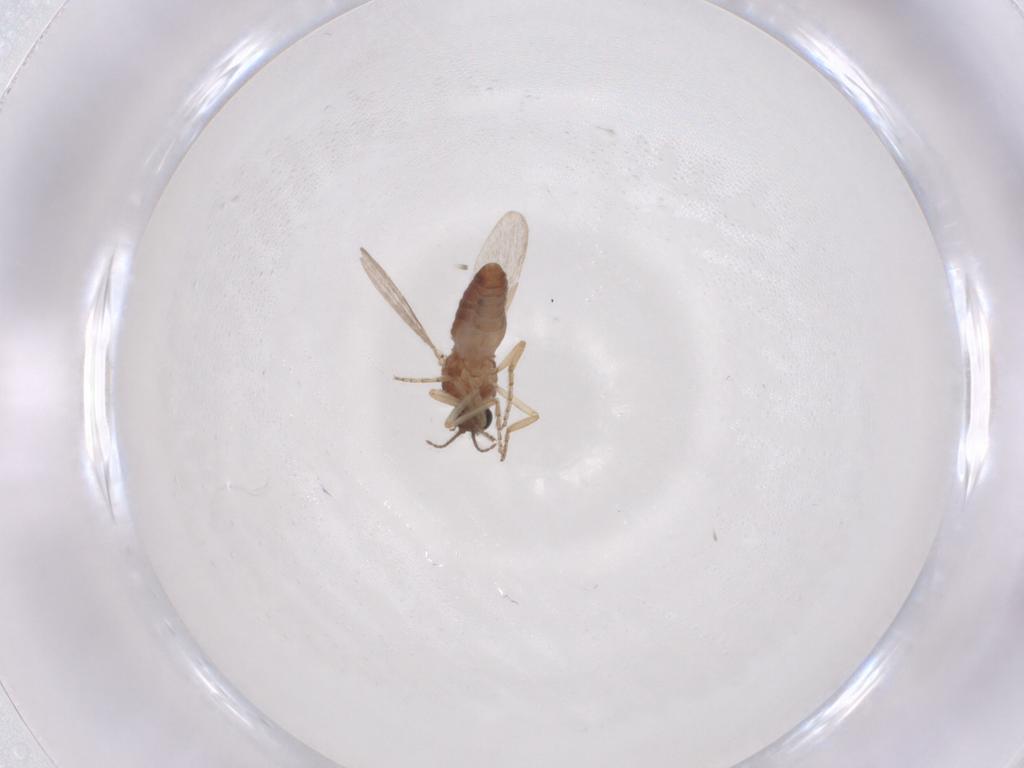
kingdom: Animalia
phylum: Arthropoda
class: Insecta
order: Diptera
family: Ceratopogonidae
